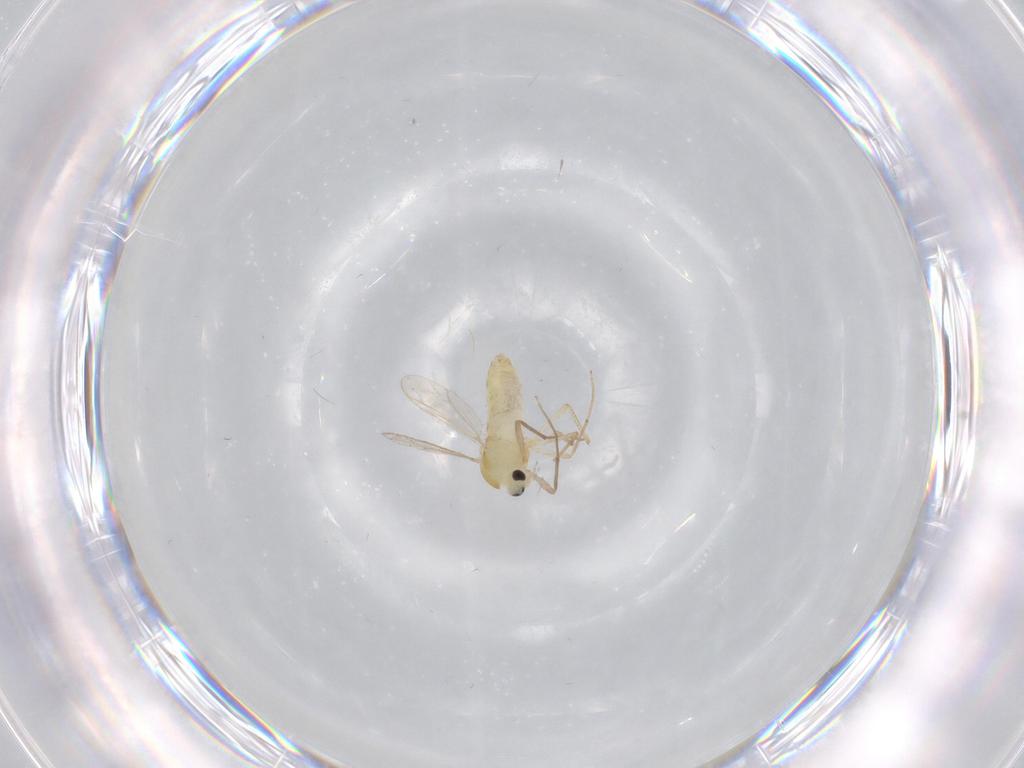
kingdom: Animalia
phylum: Arthropoda
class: Insecta
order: Diptera
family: Chironomidae
